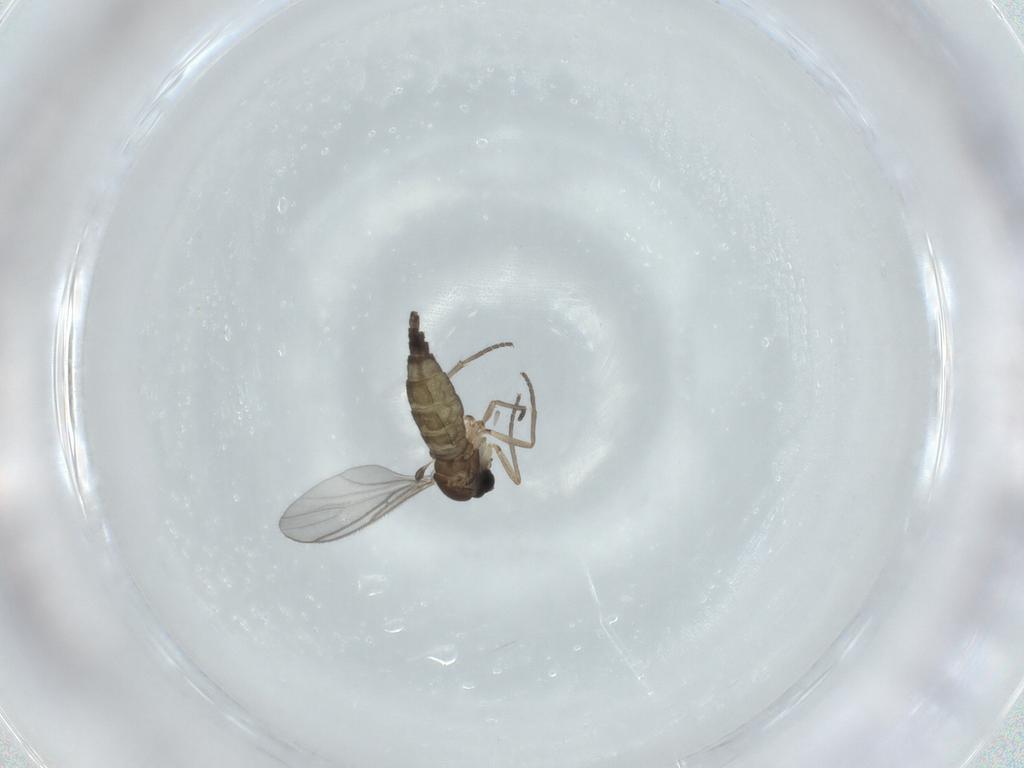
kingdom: Animalia
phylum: Arthropoda
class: Insecta
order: Diptera
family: Sciaridae
